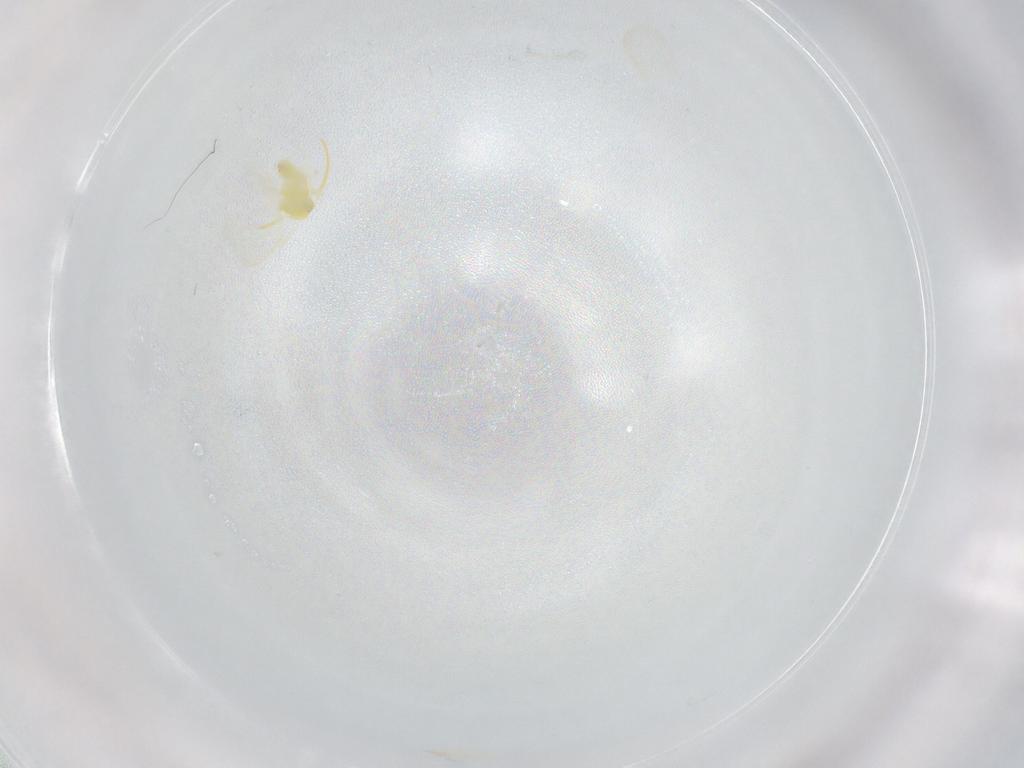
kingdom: Animalia
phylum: Arthropoda
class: Insecta
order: Hemiptera
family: Aleyrodidae
